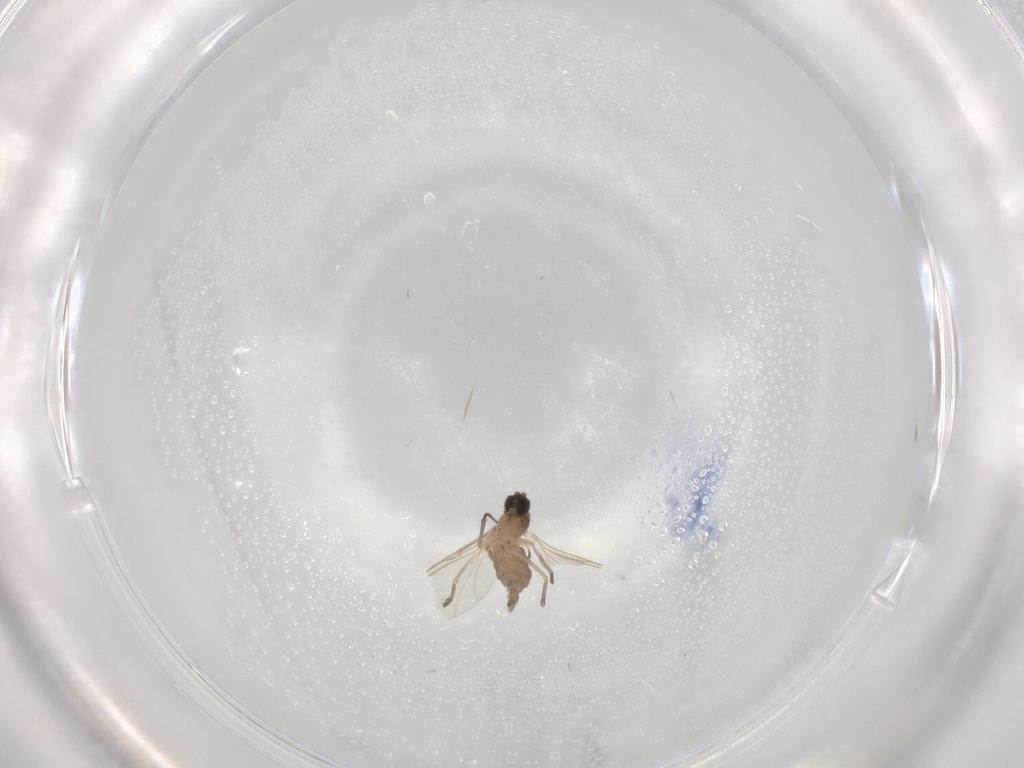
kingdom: Animalia
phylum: Arthropoda
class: Insecta
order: Diptera
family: Sciaridae
